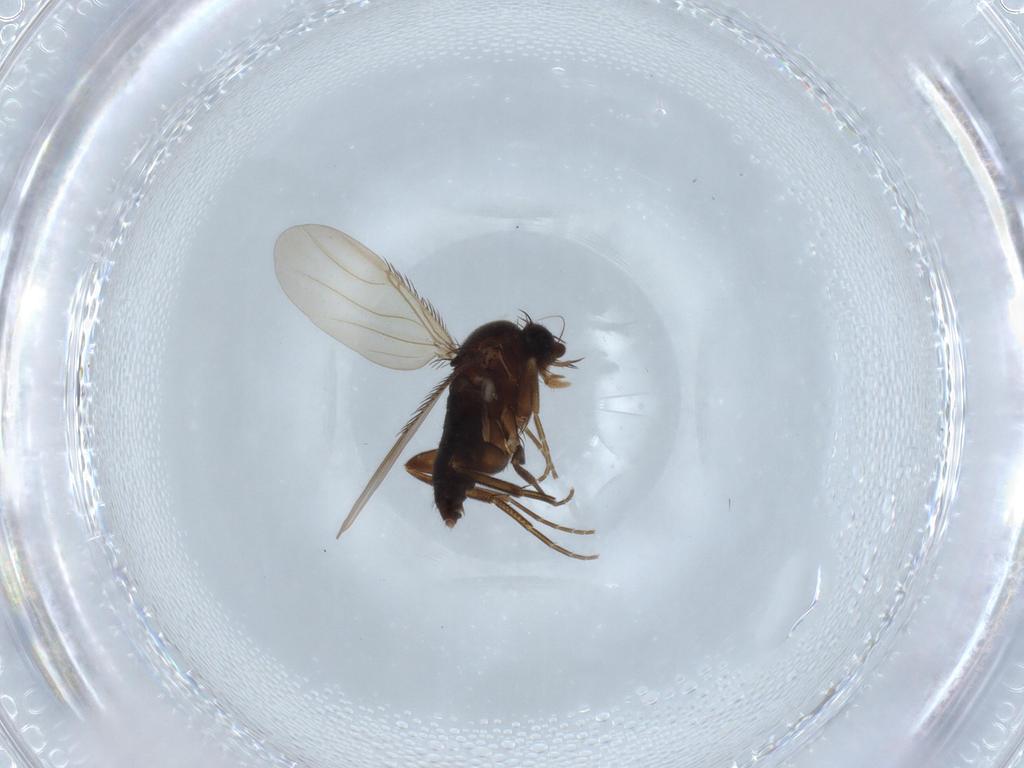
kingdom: Animalia
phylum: Arthropoda
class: Insecta
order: Diptera
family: Phoridae
